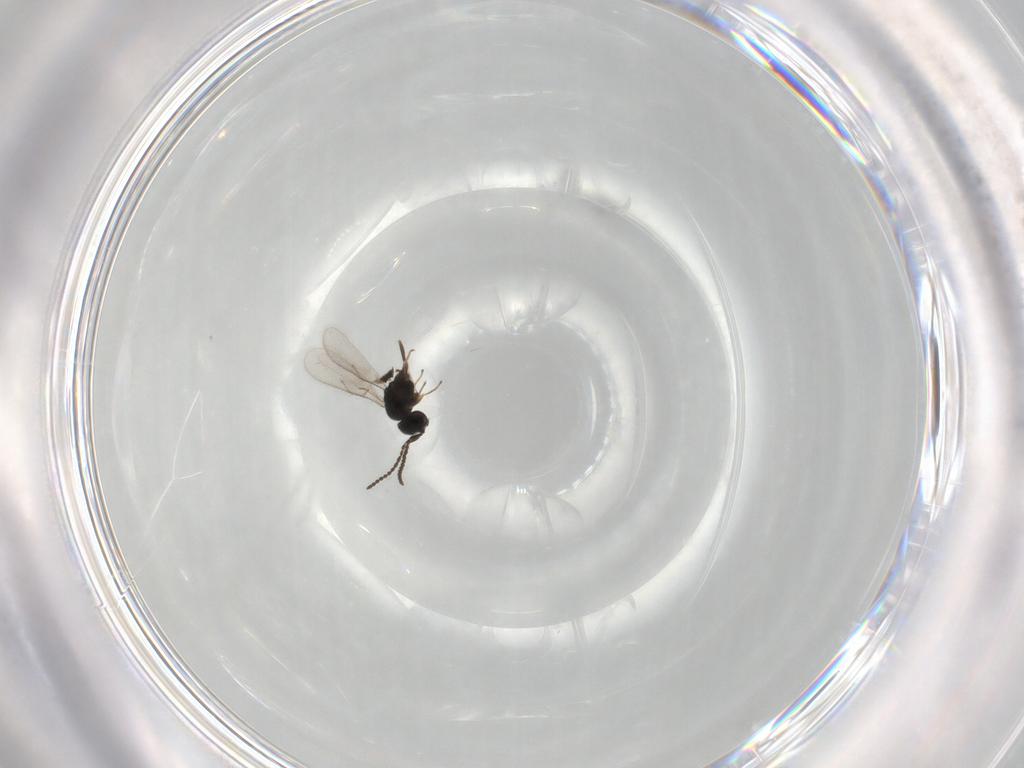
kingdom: Animalia
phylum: Arthropoda
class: Insecta
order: Hymenoptera
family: Scelionidae
